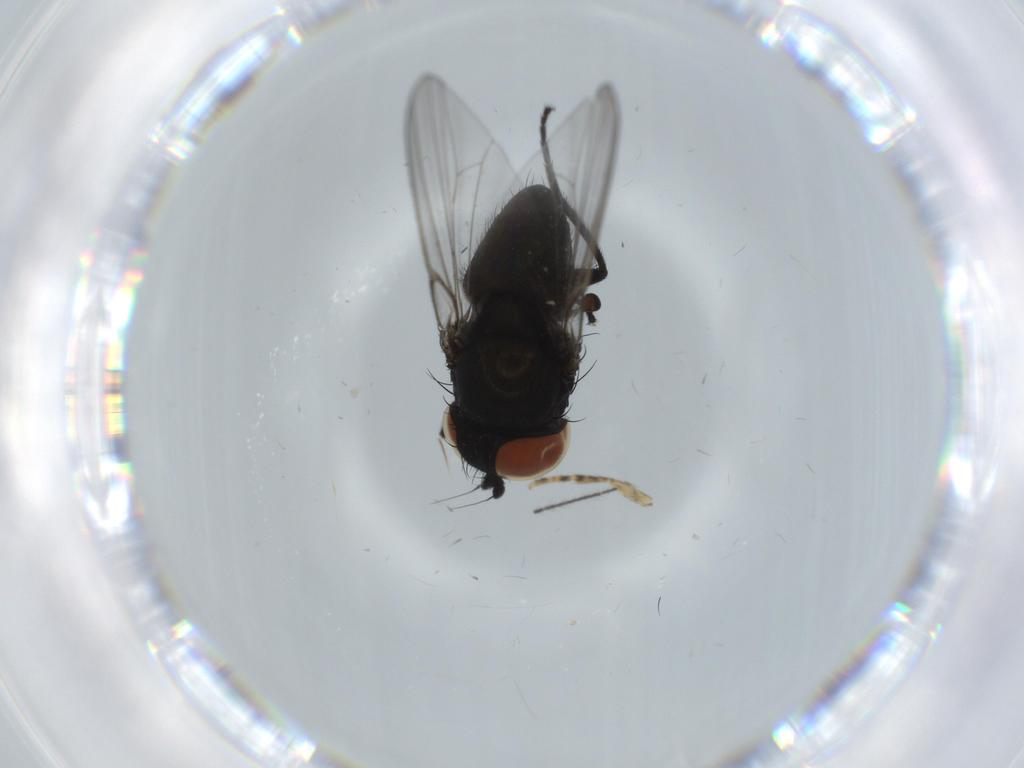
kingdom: Animalia
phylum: Arthropoda
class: Insecta
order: Diptera
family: Milichiidae
